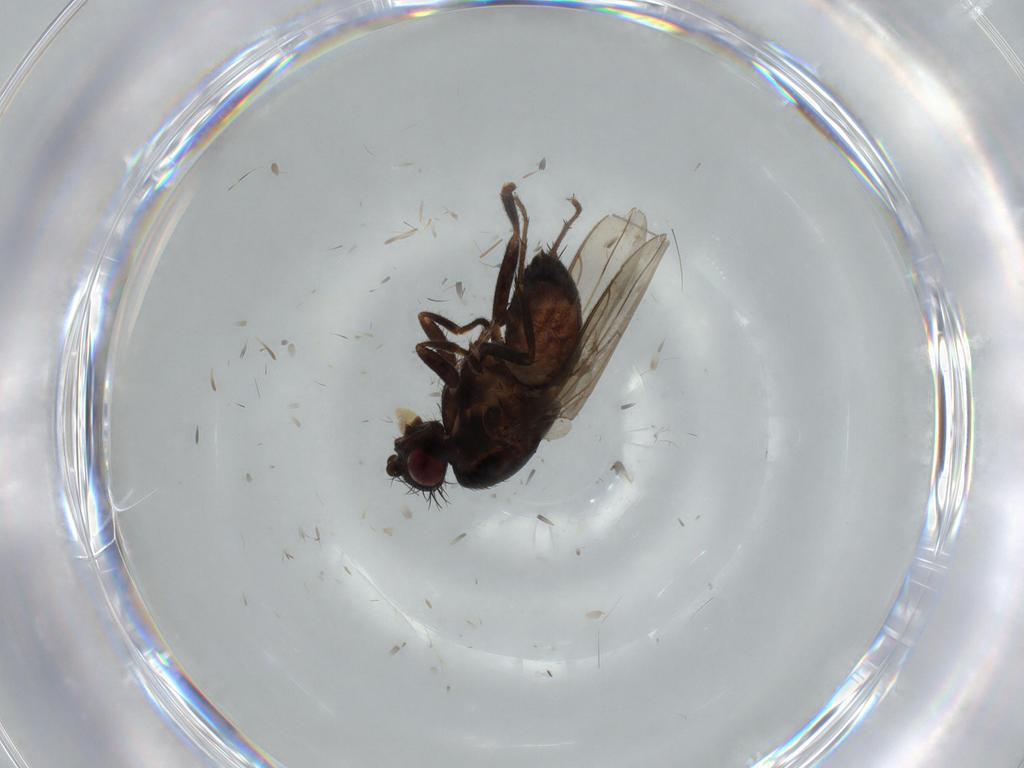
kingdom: Animalia
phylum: Arthropoda
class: Insecta
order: Diptera
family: Sphaeroceridae
